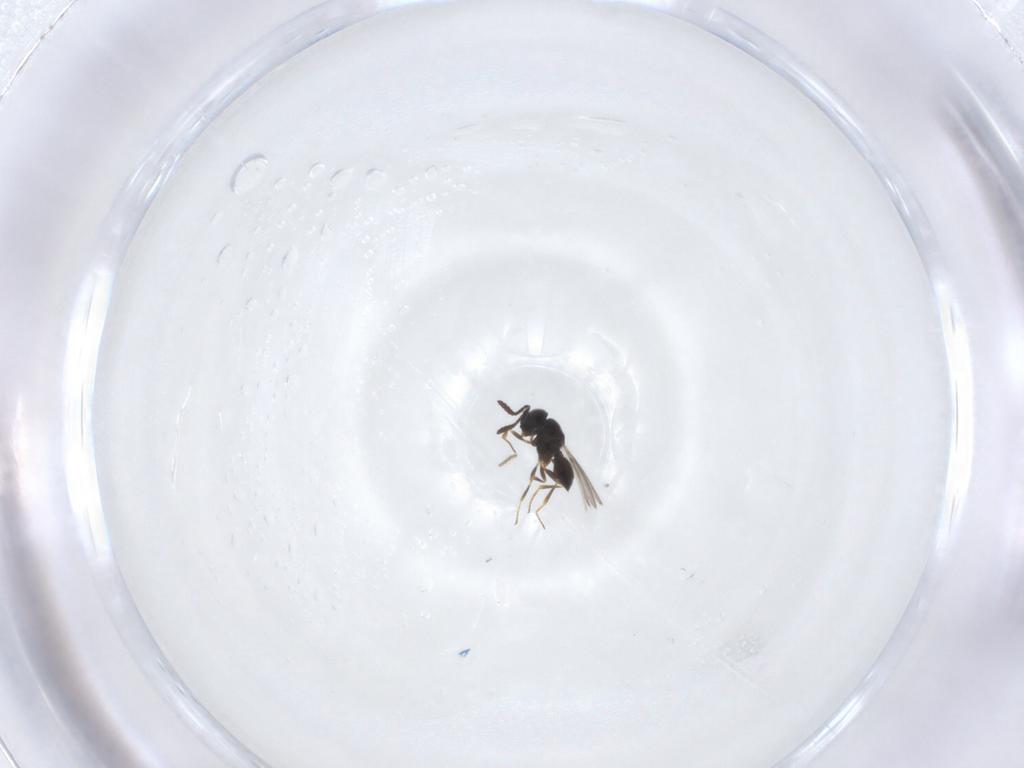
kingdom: Animalia
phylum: Arthropoda
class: Insecta
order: Hymenoptera
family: Scelionidae
